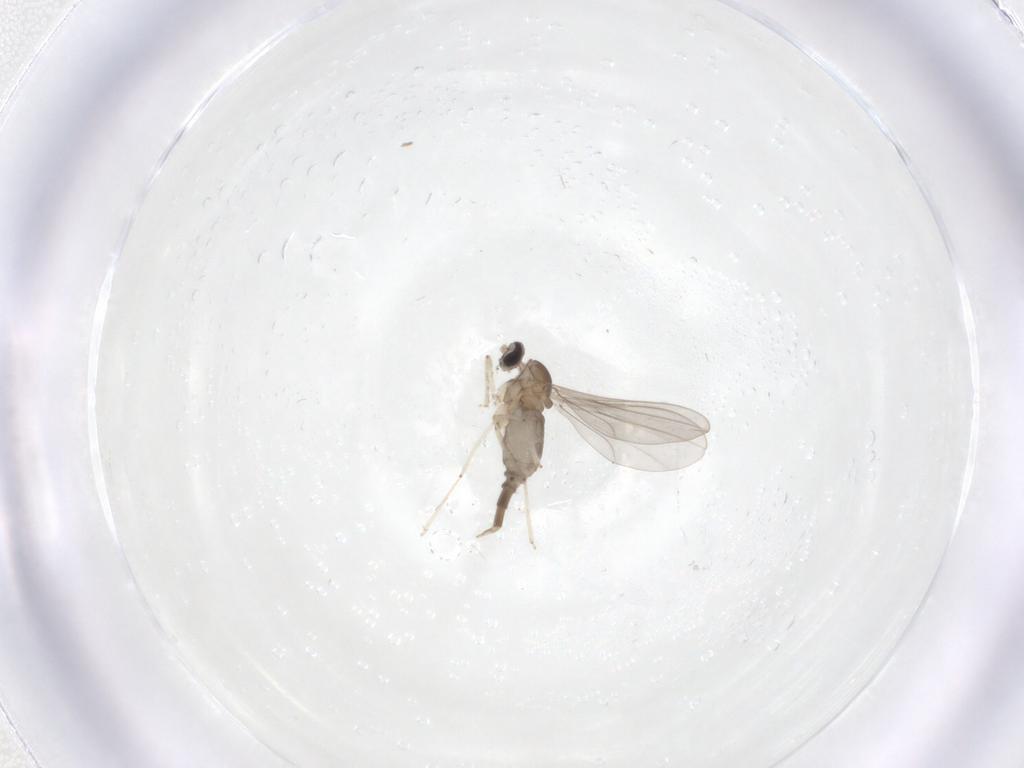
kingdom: Animalia
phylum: Arthropoda
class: Insecta
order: Diptera
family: Cecidomyiidae
